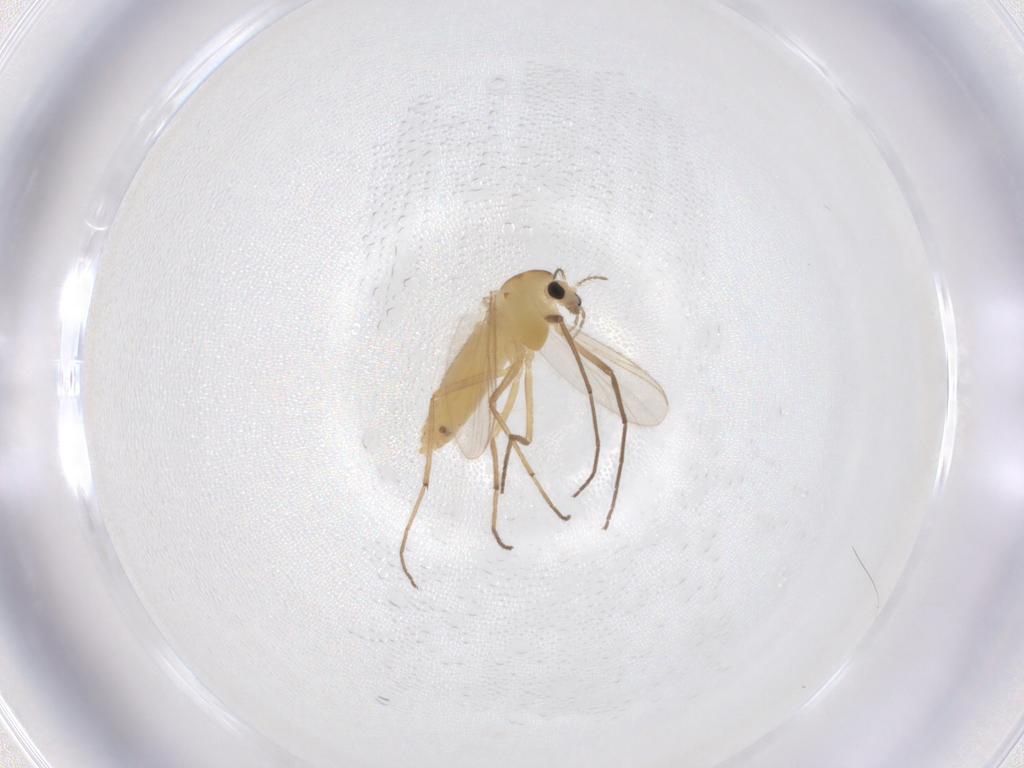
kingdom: Animalia
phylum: Arthropoda
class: Insecta
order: Diptera
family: Chironomidae
